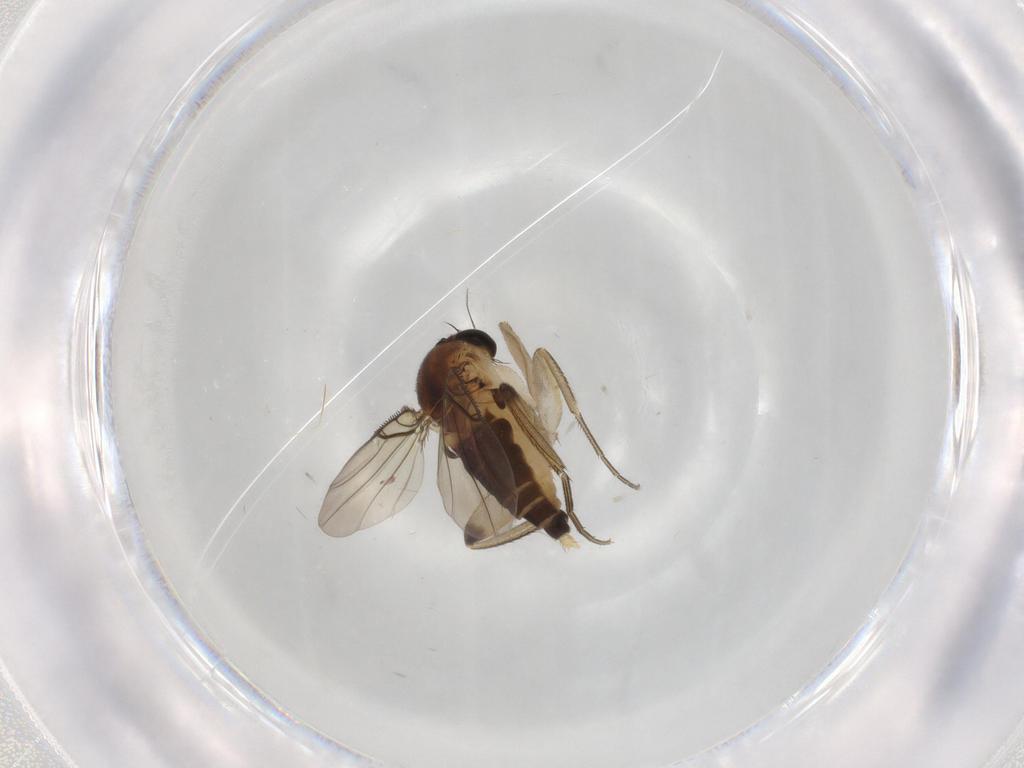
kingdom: Animalia
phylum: Arthropoda
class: Insecta
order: Diptera
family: Phoridae
